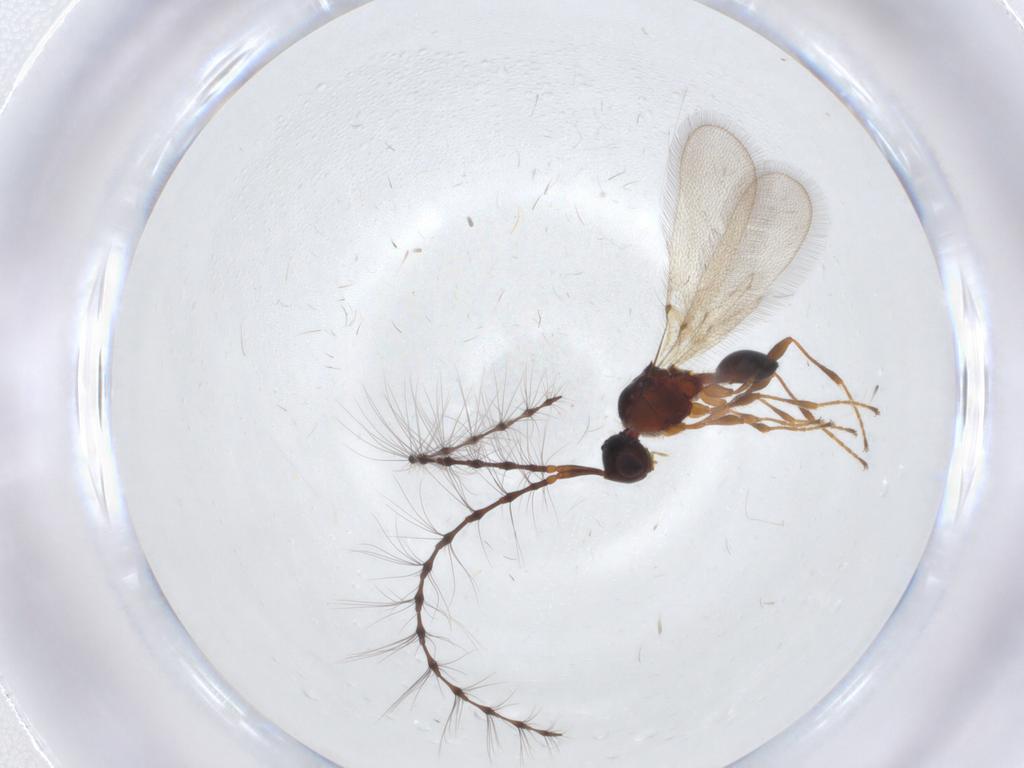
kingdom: Animalia
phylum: Arthropoda
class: Insecta
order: Hymenoptera
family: Diapriidae
